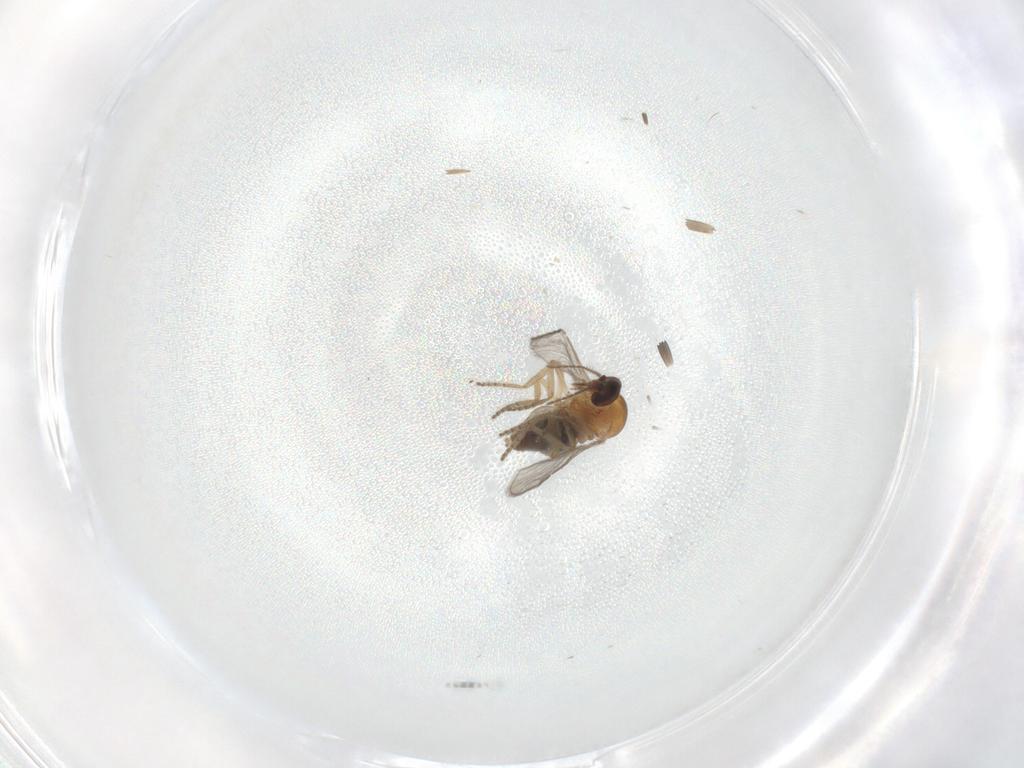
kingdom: Animalia
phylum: Arthropoda
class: Insecta
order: Diptera
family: Ceratopogonidae
